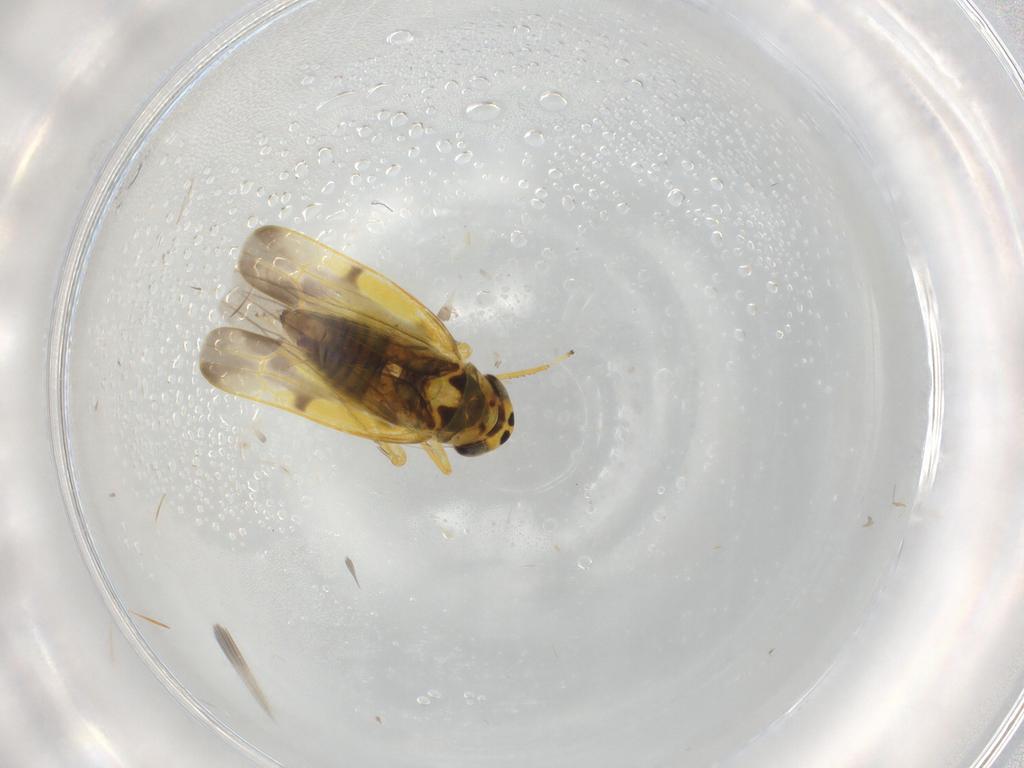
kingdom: Animalia
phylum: Arthropoda
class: Insecta
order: Hemiptera
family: Cicadellidae
